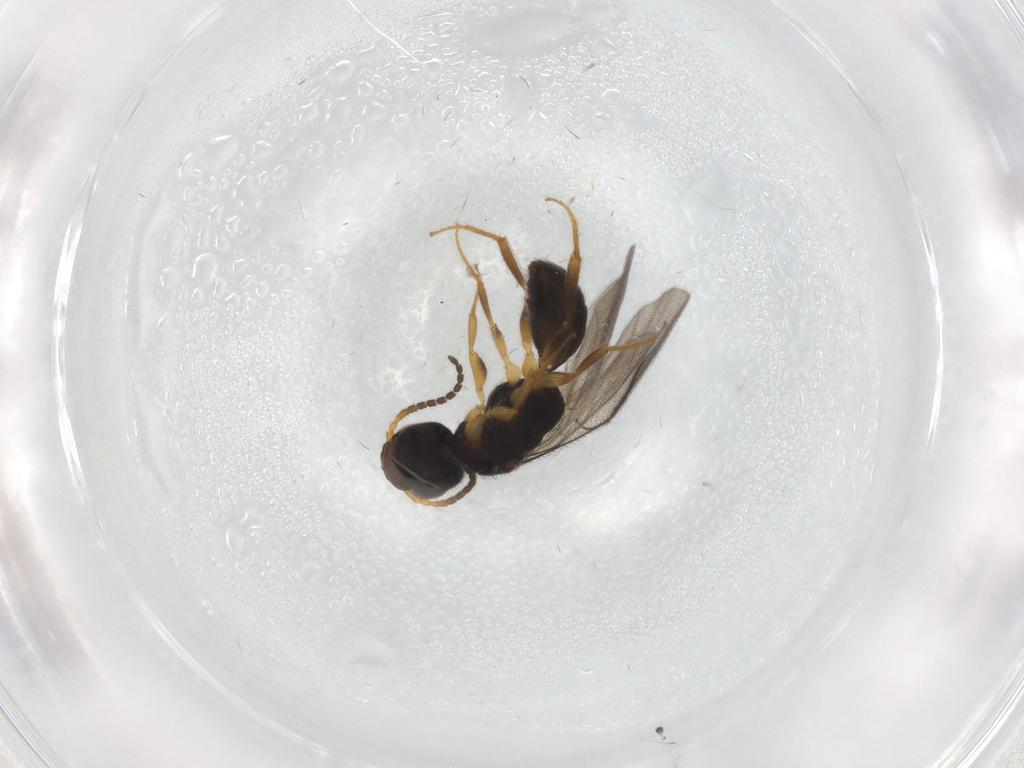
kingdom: Animalia
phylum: Arthropoda
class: Insecta
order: Hymenoptera
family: Bethylidae
